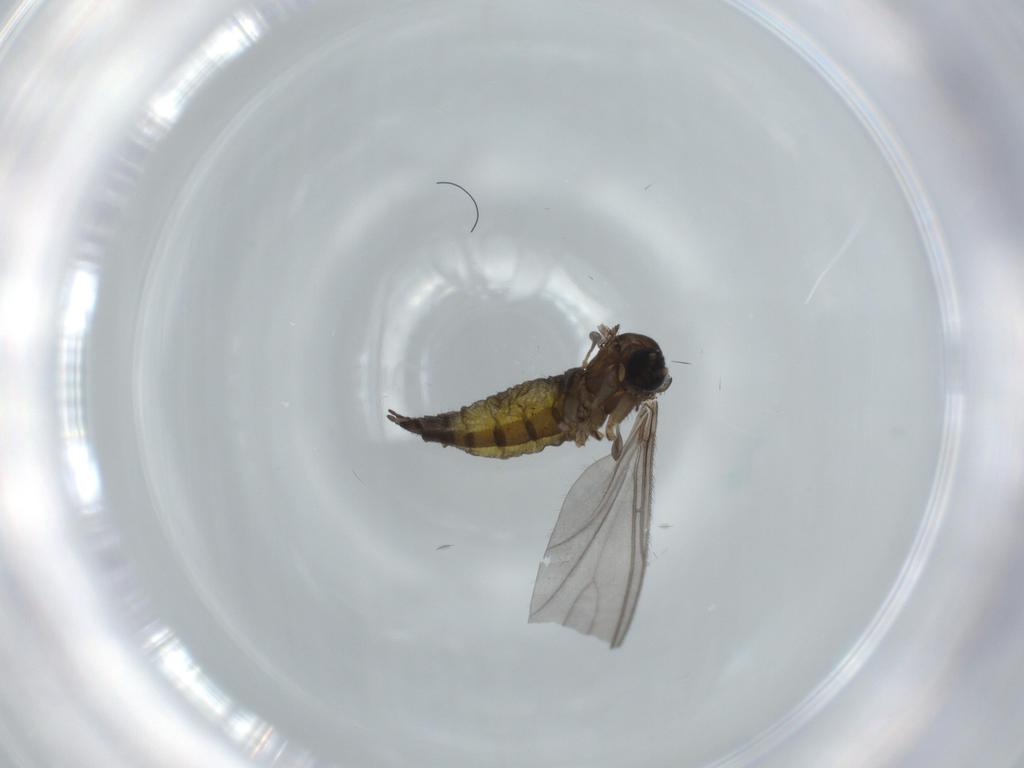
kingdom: Animalia
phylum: Arthropoda
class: Insecta
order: Diptera
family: Sciaridae
